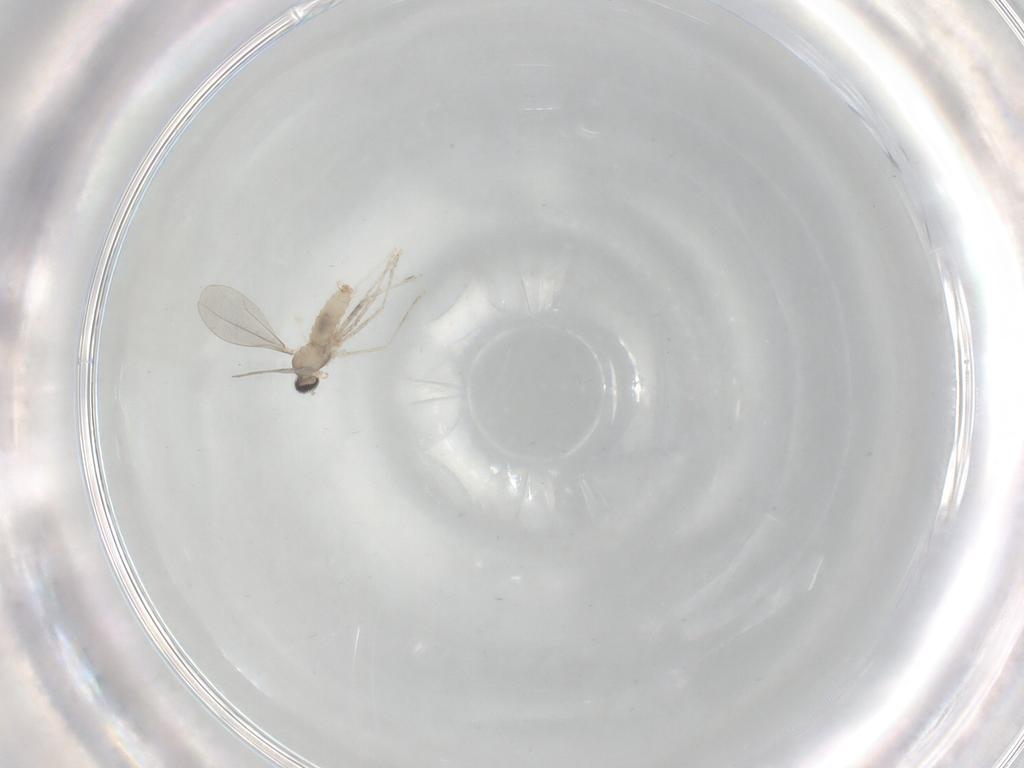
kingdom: Animalia
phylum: Arthropoda
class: Insecta
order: Diptera
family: Cecidomyiidae
